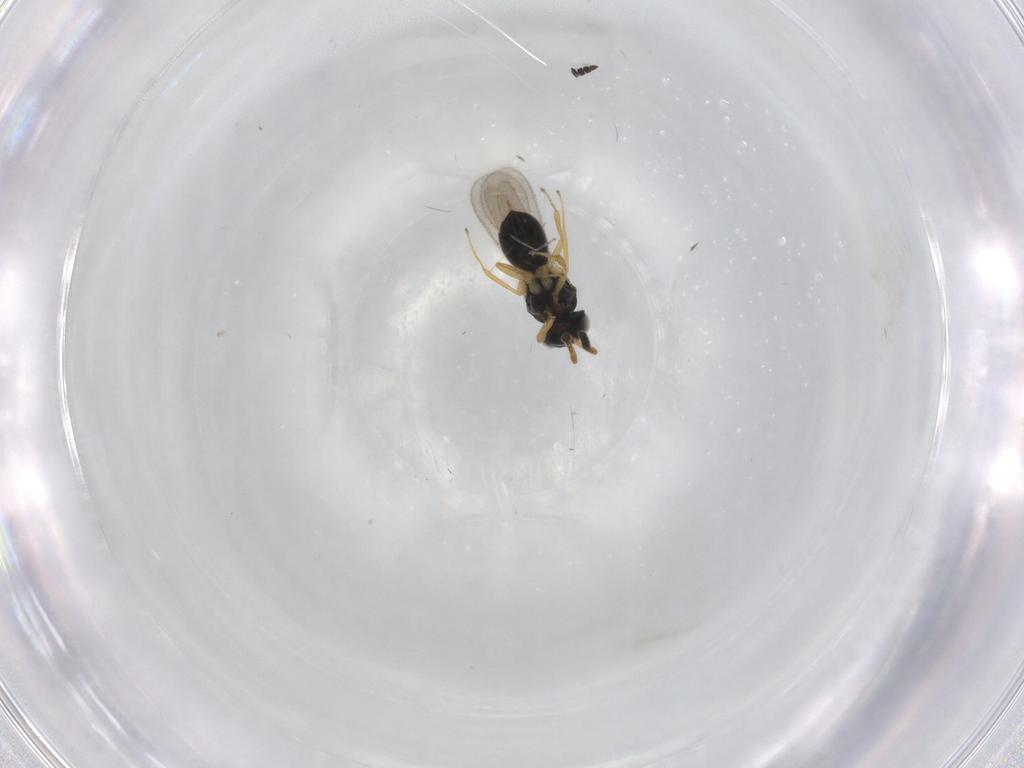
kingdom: Animalia
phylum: Arthropoda
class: Insecta
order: Hymenoptera
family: Scelionidae
